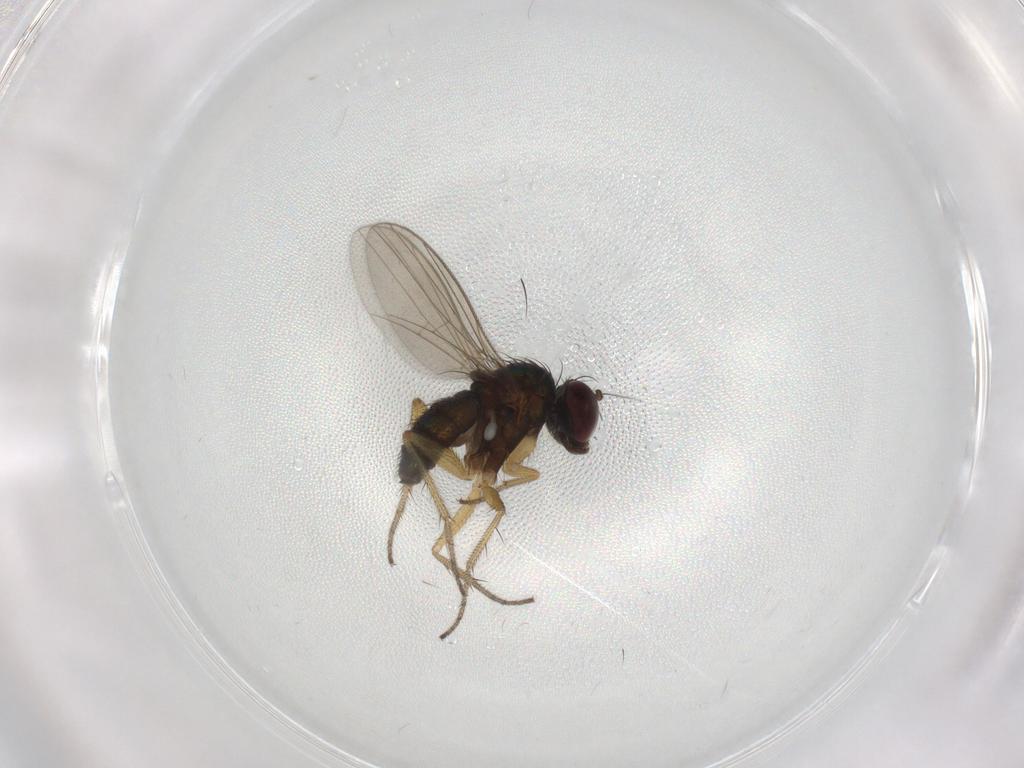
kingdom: Animalia
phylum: Arthropoda
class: Insecta
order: Diptera
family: Dolichopodidae
